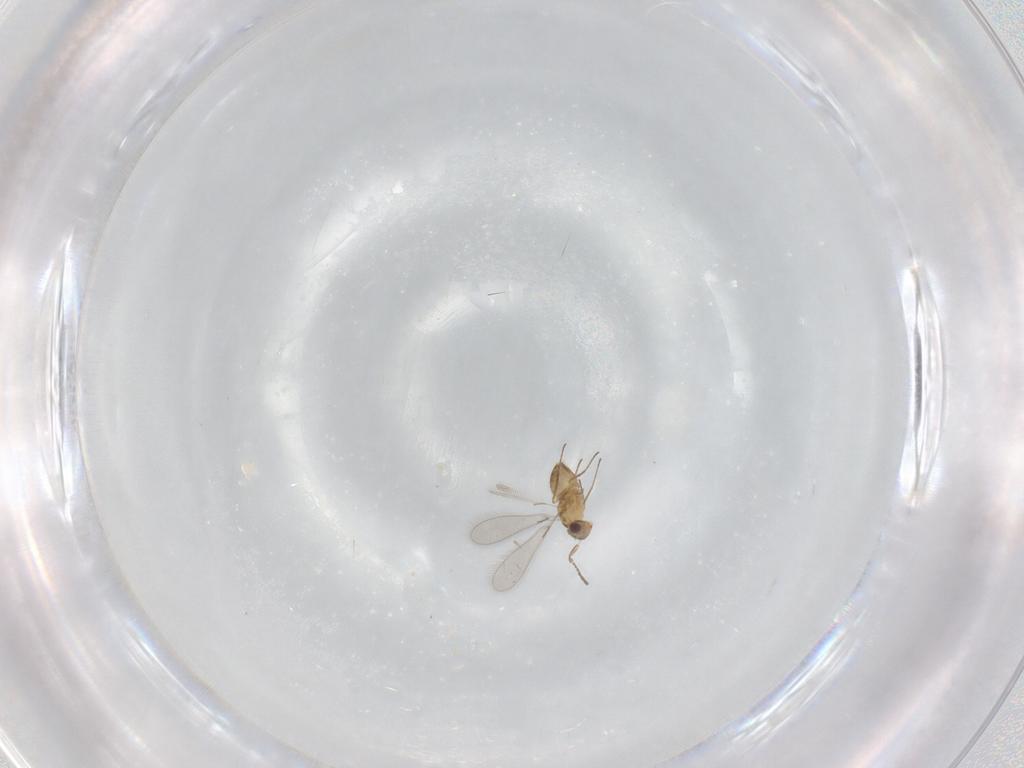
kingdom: Animalia
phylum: Arthropoda
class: Insecta
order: Hymenoptera
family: Mymaridae
